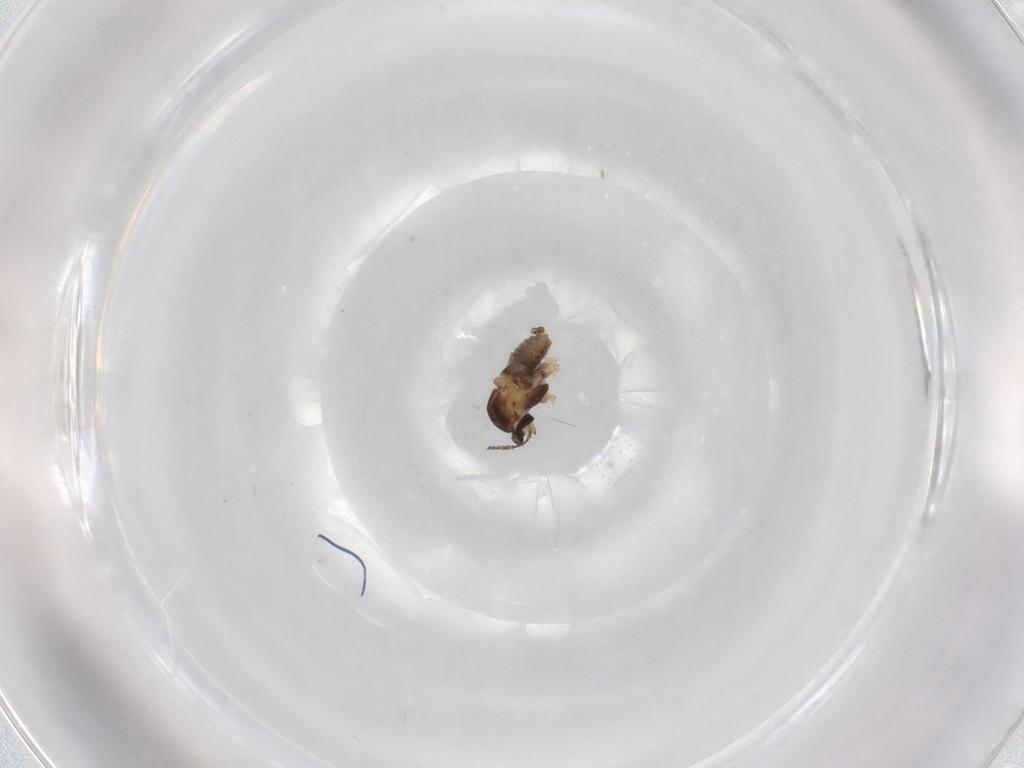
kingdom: Animalia
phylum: Arthropoda
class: Insecta
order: Diptera
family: Cecidomyiidae
